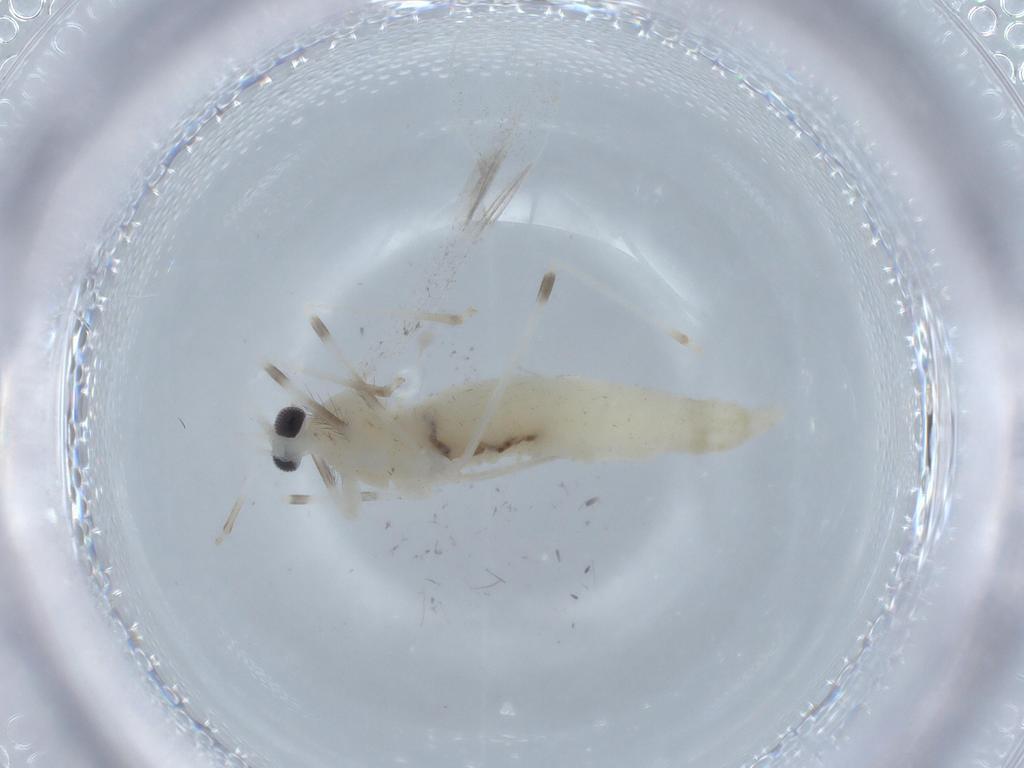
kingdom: Animalia
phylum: Arthropoda
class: Insecta
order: Diptera
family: Cecidomyiidae
